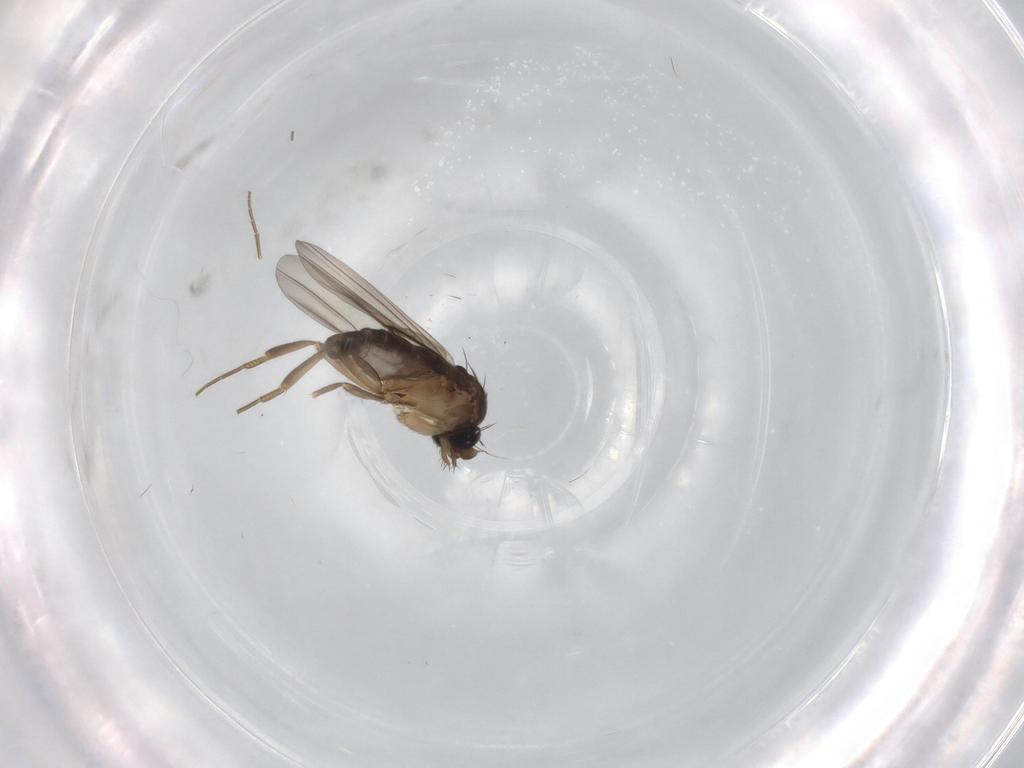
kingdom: Animalia
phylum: Arthropoda
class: Insecta
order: Diptera
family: Phoridae
